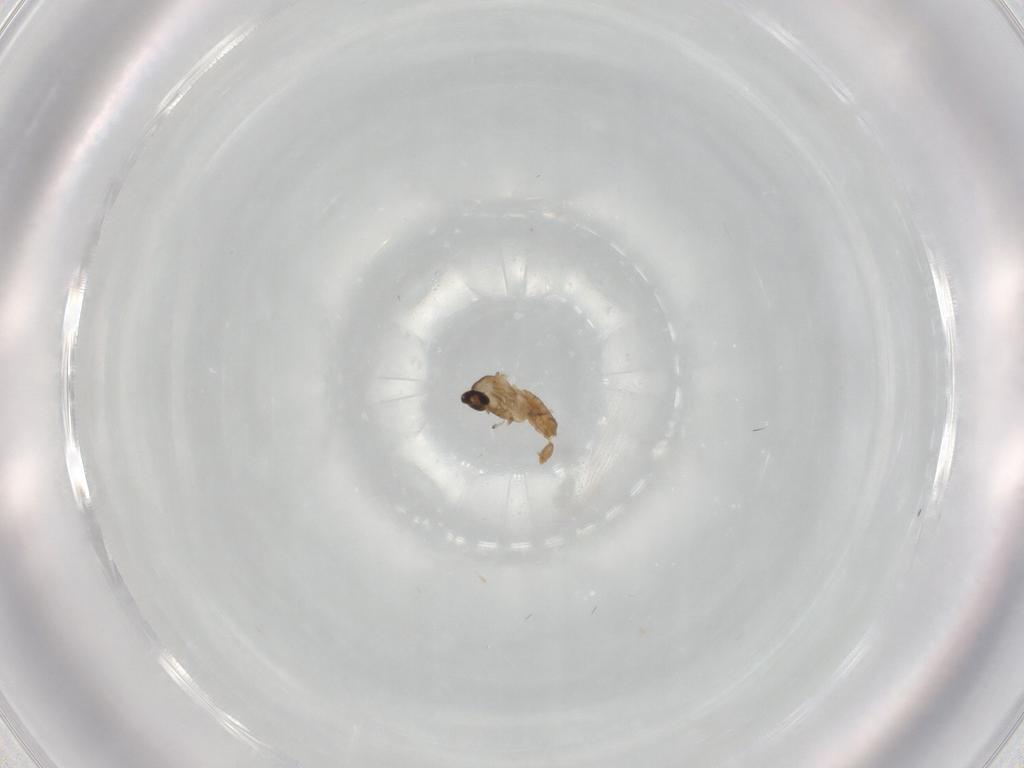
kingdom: Animalia
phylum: Arthropoda
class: Insecta
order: Diptera
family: Cecidomyiidae
